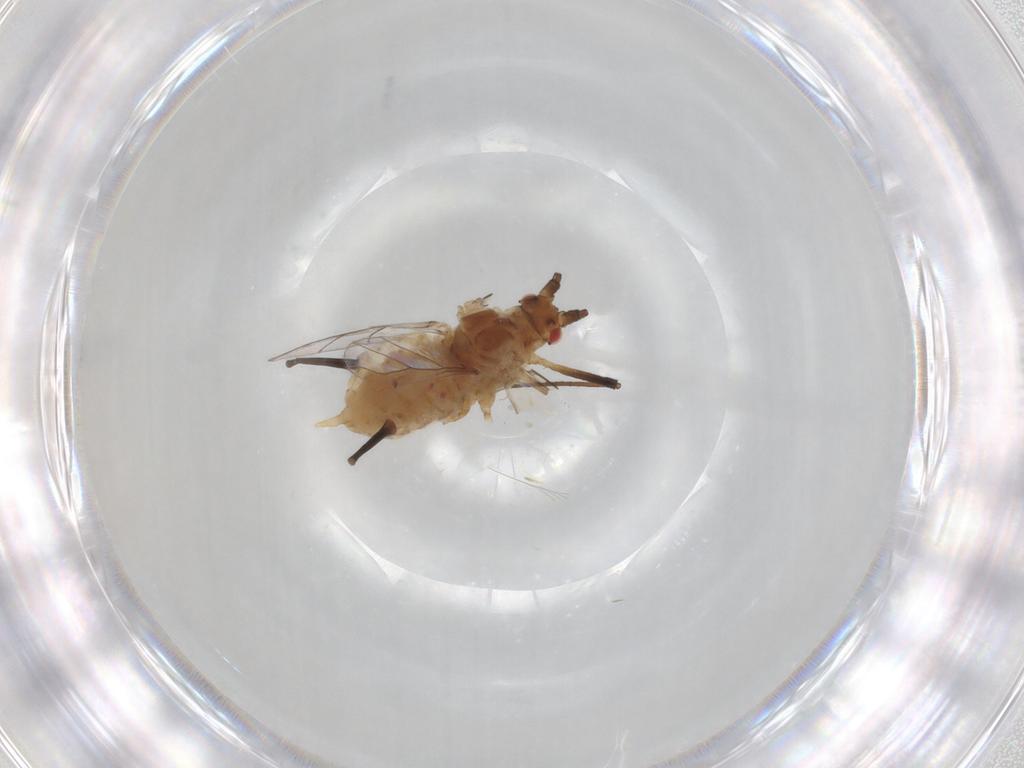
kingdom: Animalia
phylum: Arthropoda
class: Insecta
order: Hemiptera
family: Aphididae
